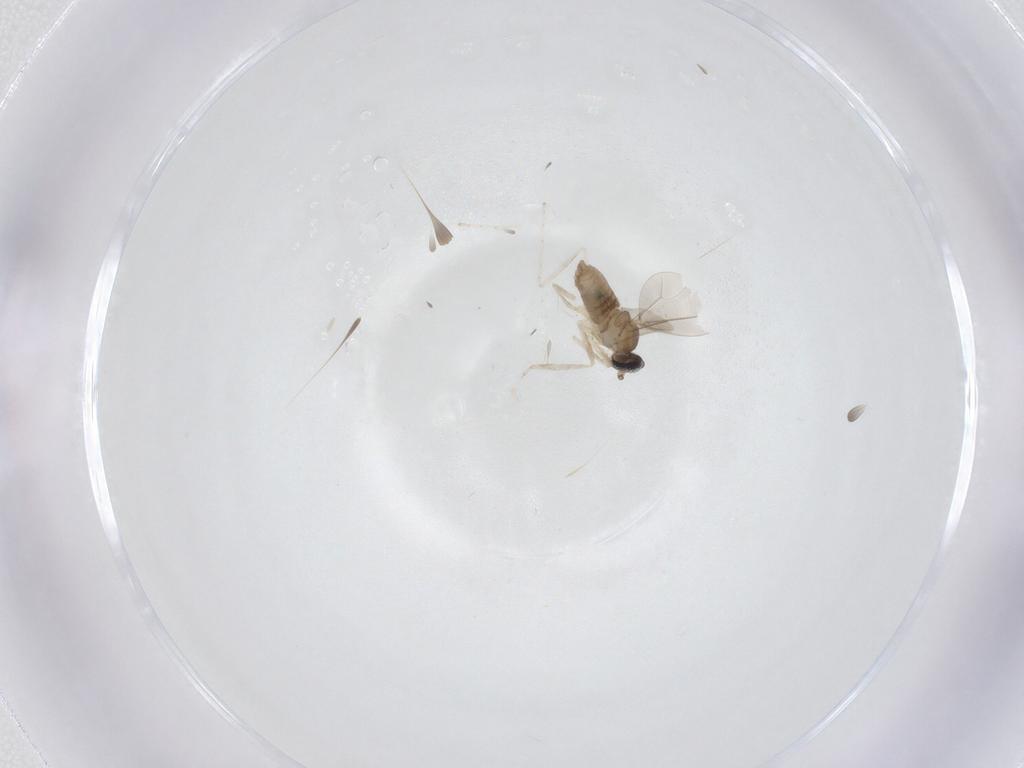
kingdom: Animalia
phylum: Arthropoda
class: Insecta
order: Diptera
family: Cecidomyiidae
